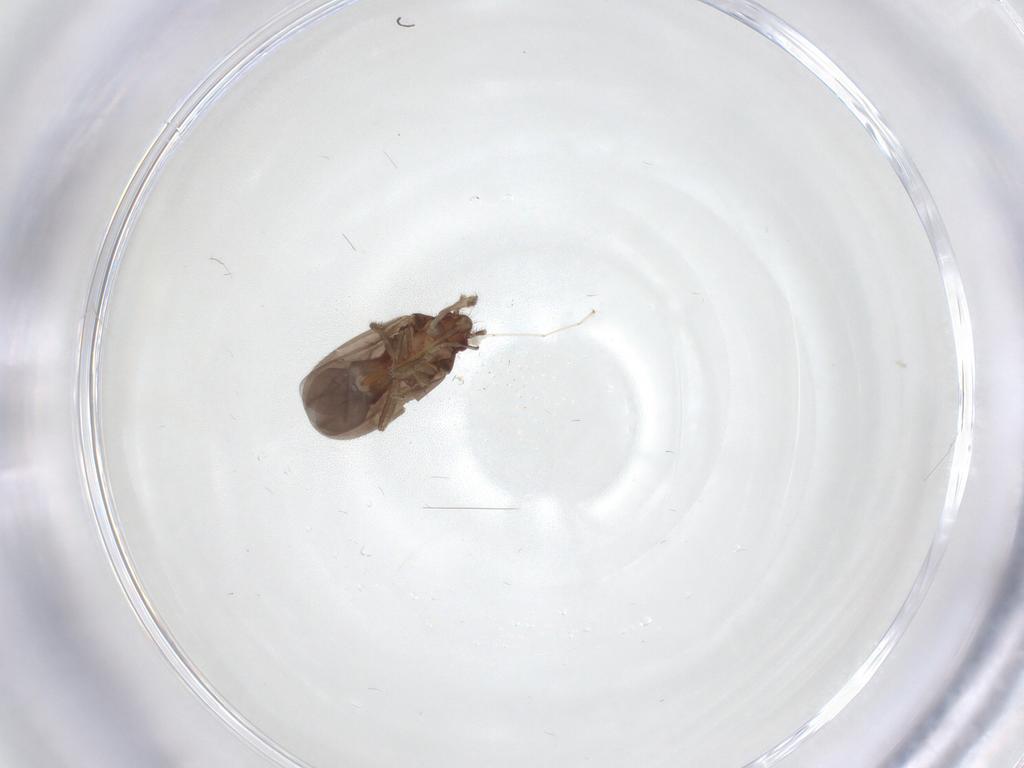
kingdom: Animalia
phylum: Arthropoda
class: Insecta
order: Hemiptera
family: Ceratocombidae
